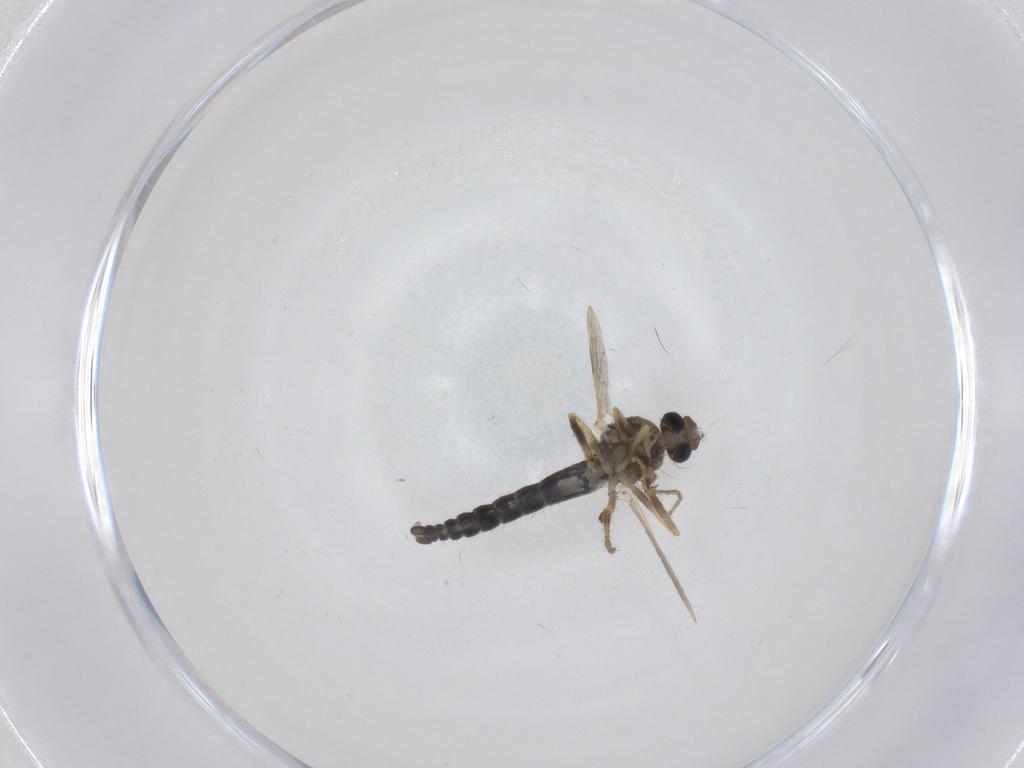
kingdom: Animalia
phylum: Arthropoda
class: Insecta
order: Diptera
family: Ceratopogonidae
